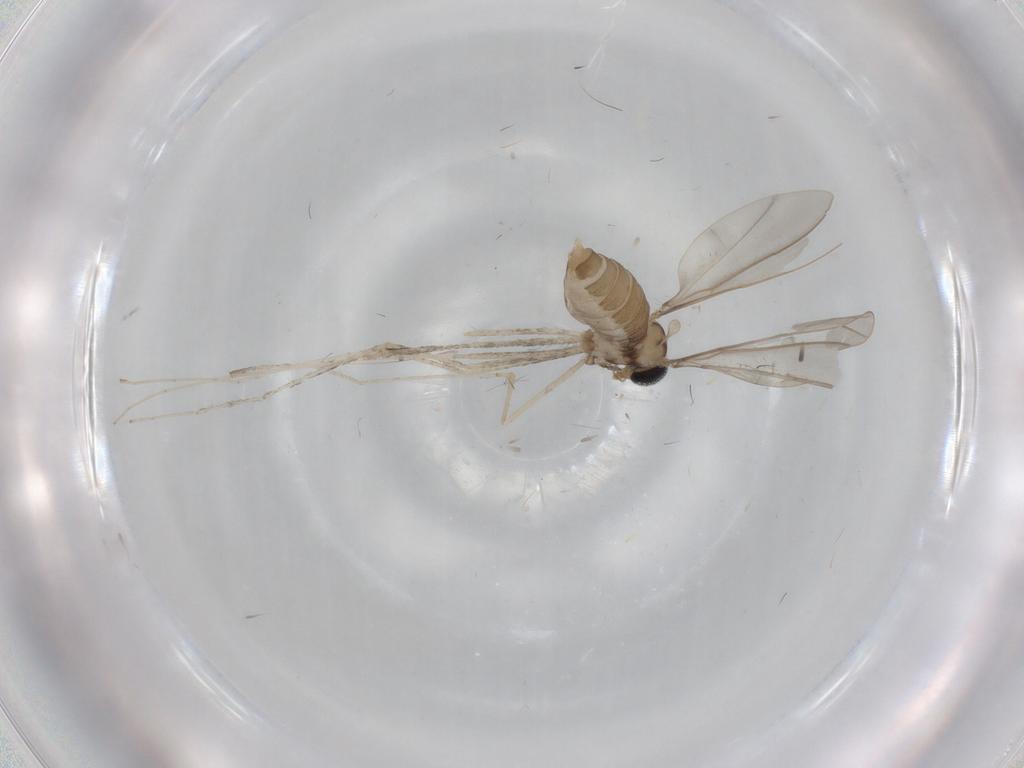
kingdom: Animalia
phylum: Arthropoda
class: Insecta
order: Diptera
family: Cecidomyiidae
